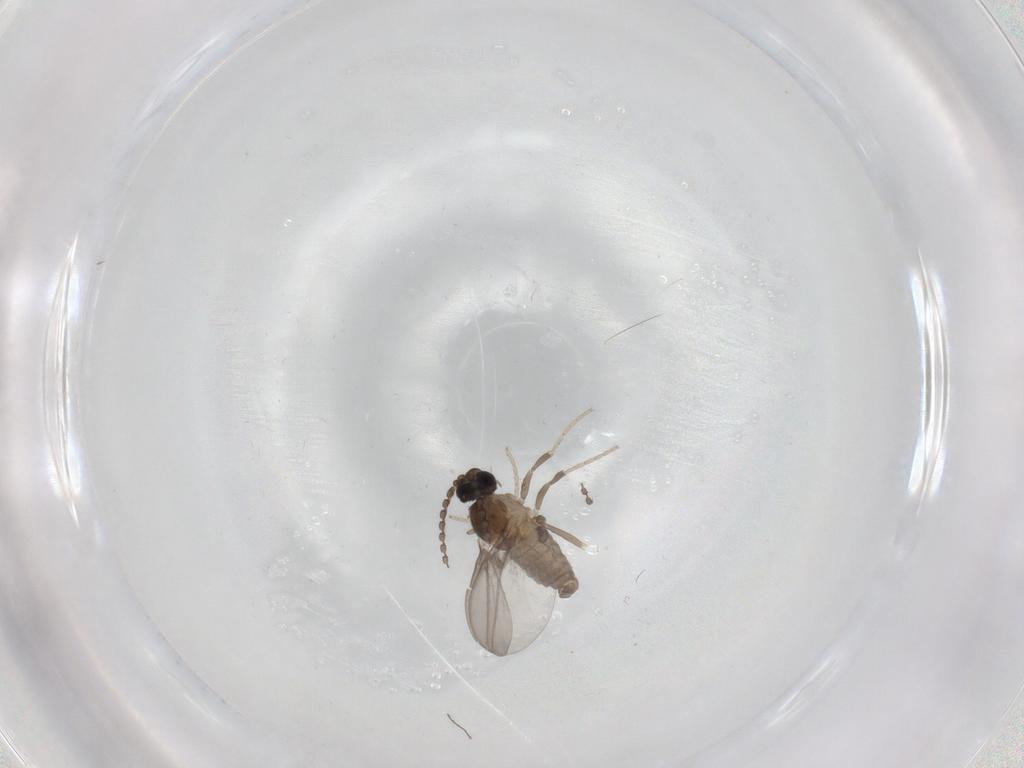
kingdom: Animalia
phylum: Arthropoda
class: Insecta
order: Diptera
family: Cecidomyiidae
